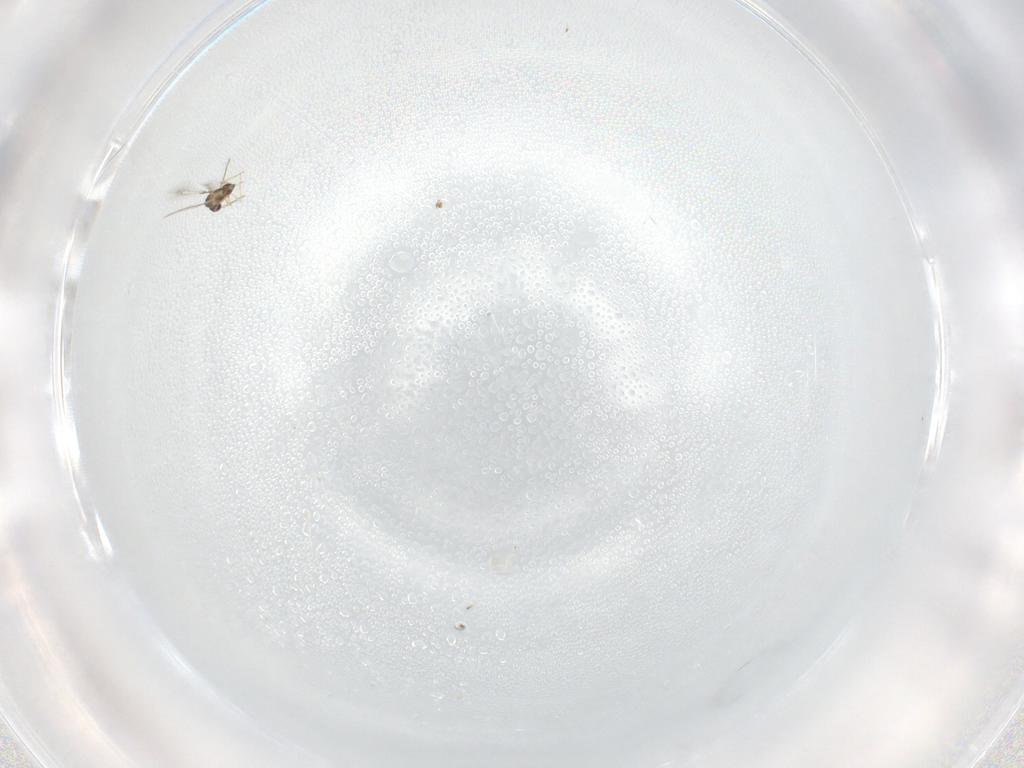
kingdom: Animalia
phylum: Arthropoda
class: Insecta
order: Hymenoptera
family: Mymaridae
